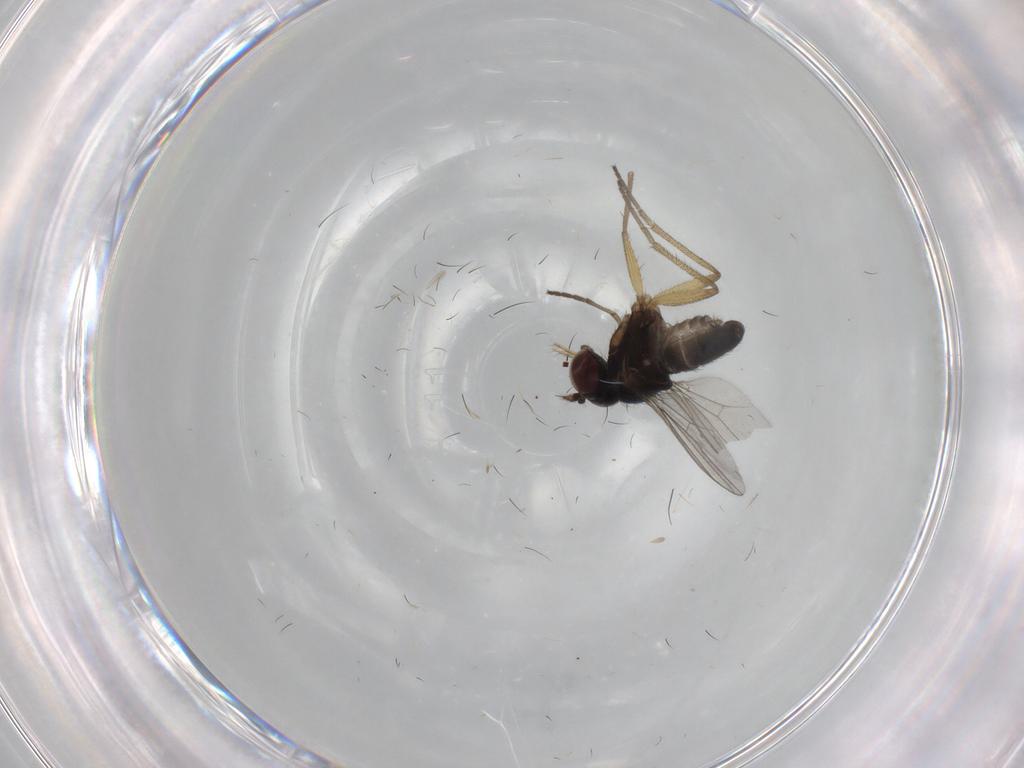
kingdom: Animalia
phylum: Arthropoda
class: Insecta
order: Diptera
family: Dolichopodidae
